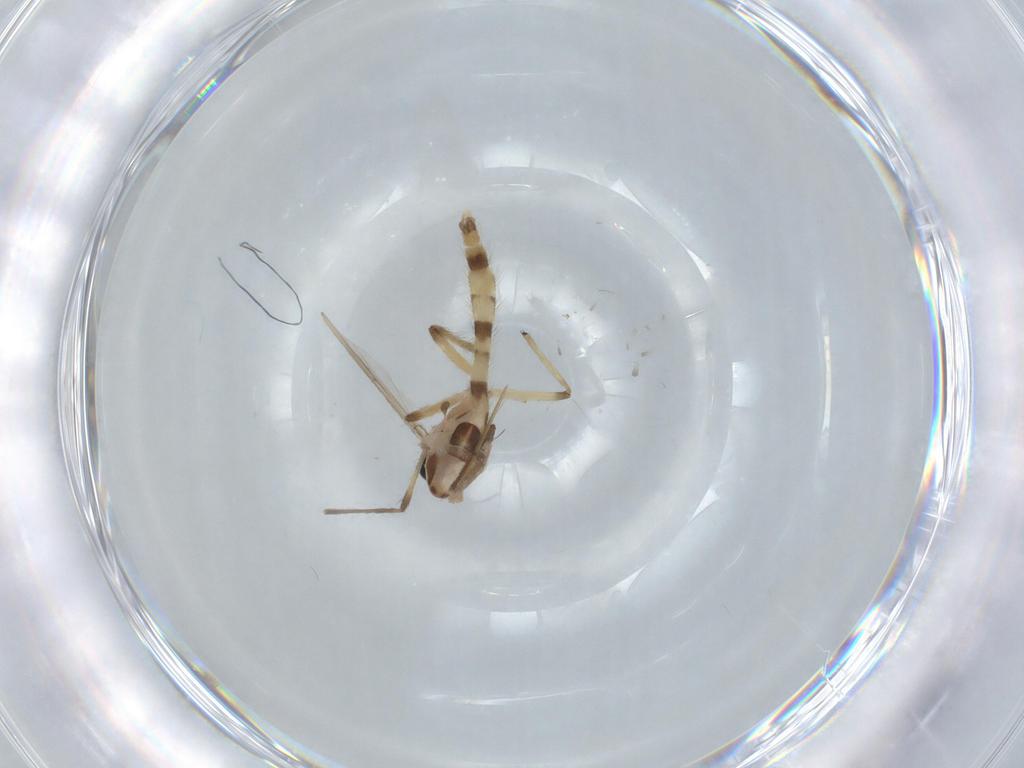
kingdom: Animalia
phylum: Arthropoda
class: Insecta
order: Diptera
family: Chironomidae
